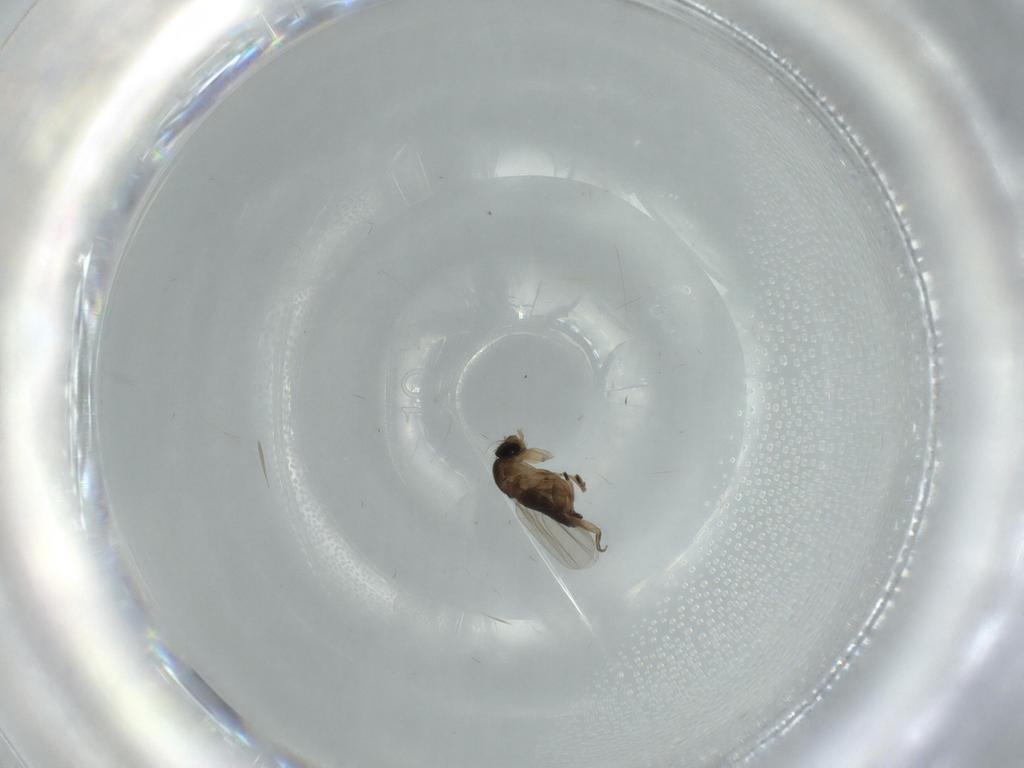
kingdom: Animalia
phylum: Arthropoda
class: Insecta
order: Diptera
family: Phoridae
